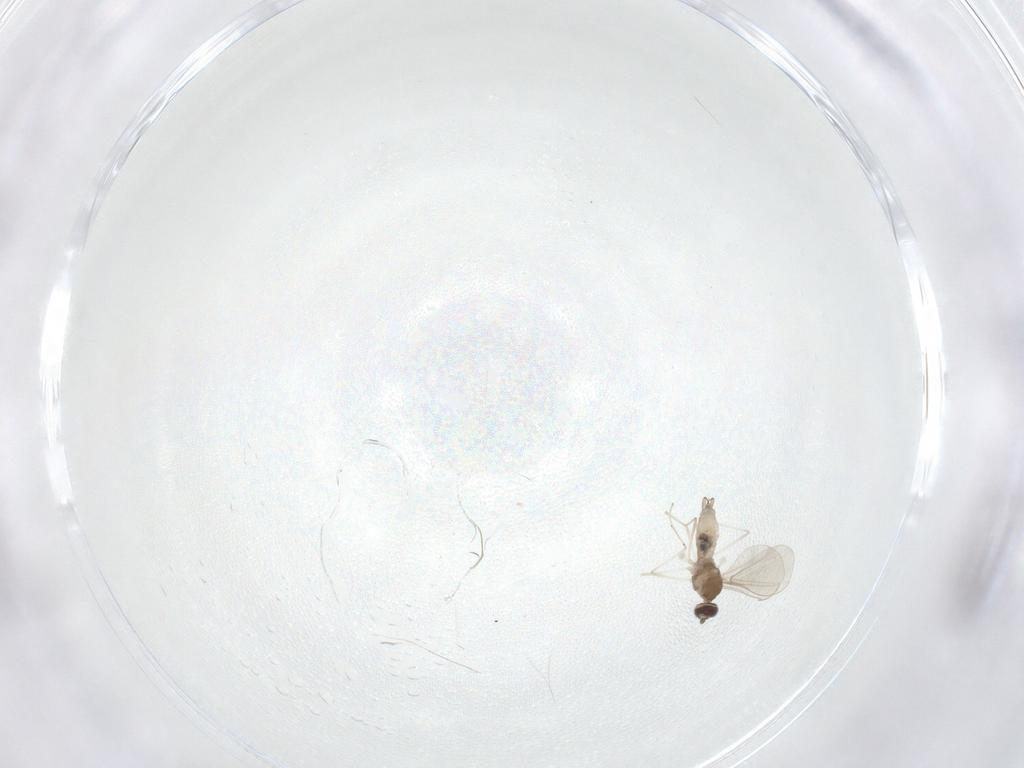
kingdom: Animalia
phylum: Arthropoda
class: Insecta
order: Diptera
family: Cecidomyiidae
